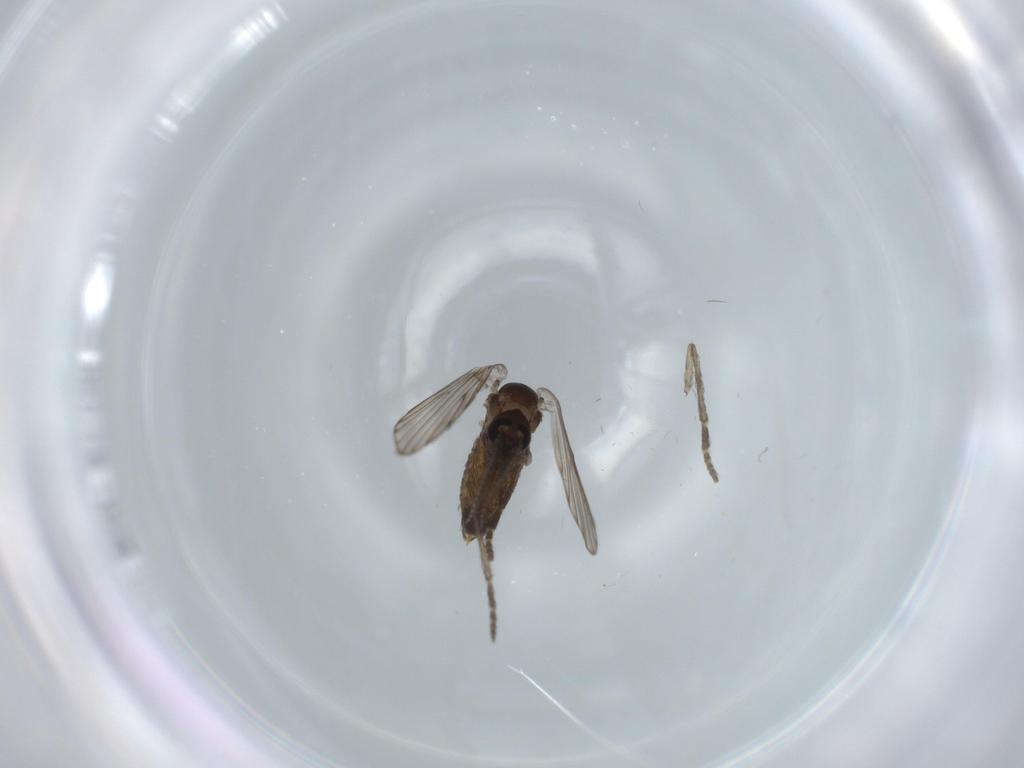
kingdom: Animalia
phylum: Arthropoda
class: Insecta
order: Diptera
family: Psychodidae
